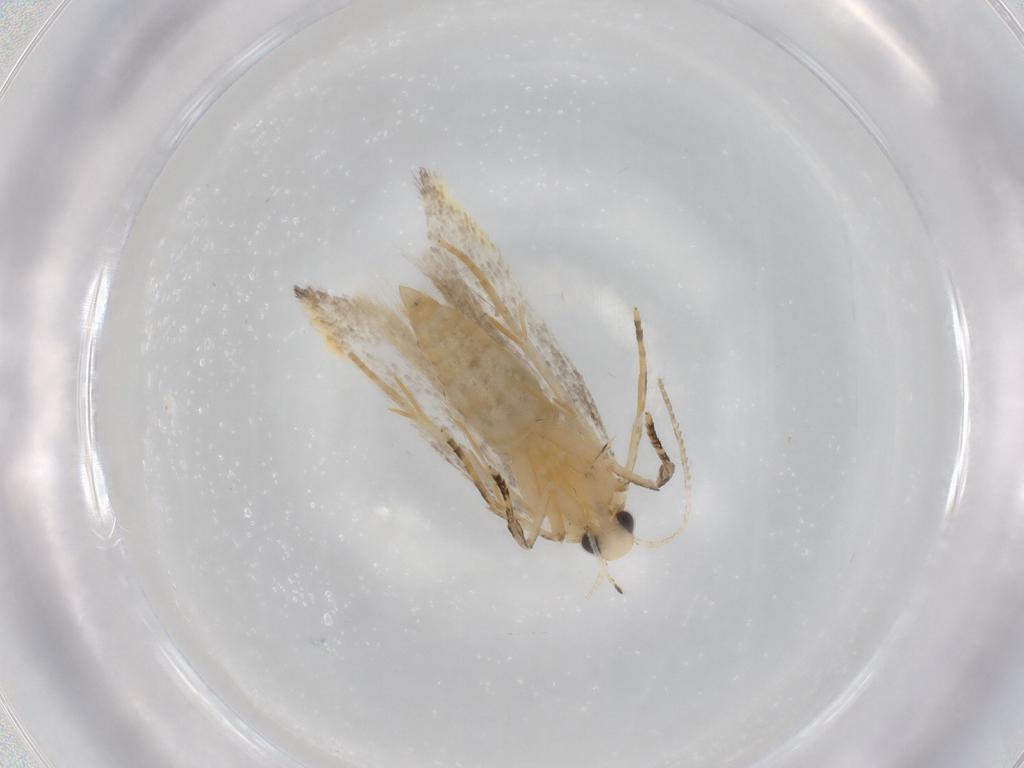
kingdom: Animalia
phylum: Arthropoda
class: Insecta
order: Lepidoptera
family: Autostichidae
